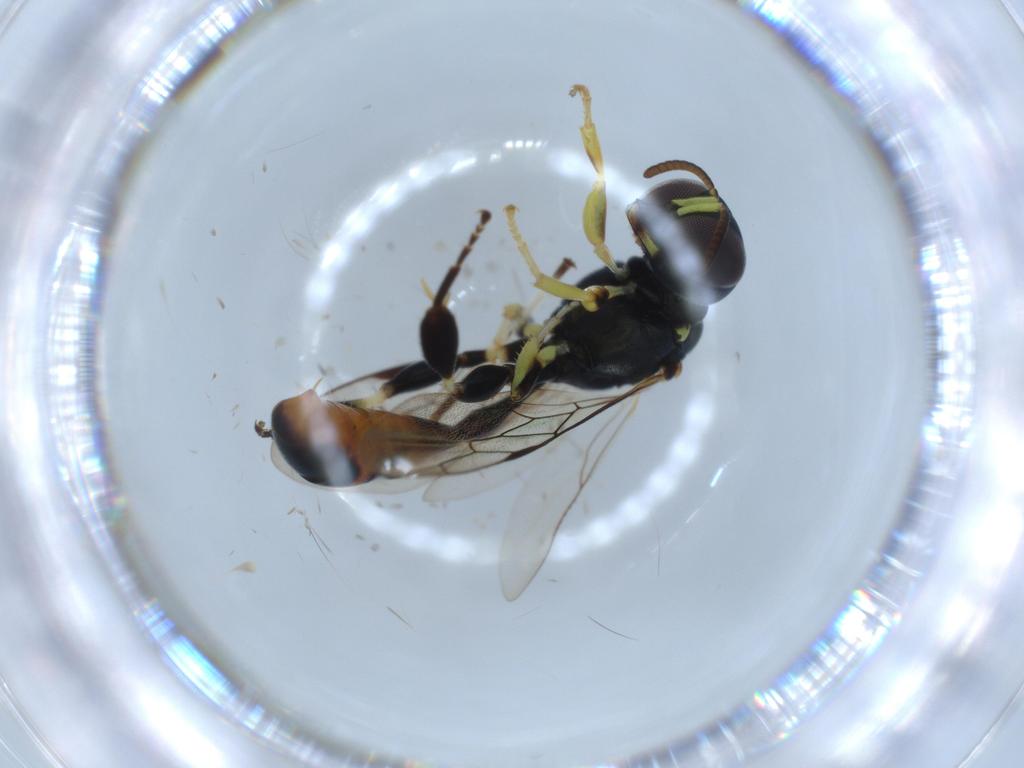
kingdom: Animalia
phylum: Arthropoda
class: Insecta
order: Hymenoptera
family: Crabronidae
